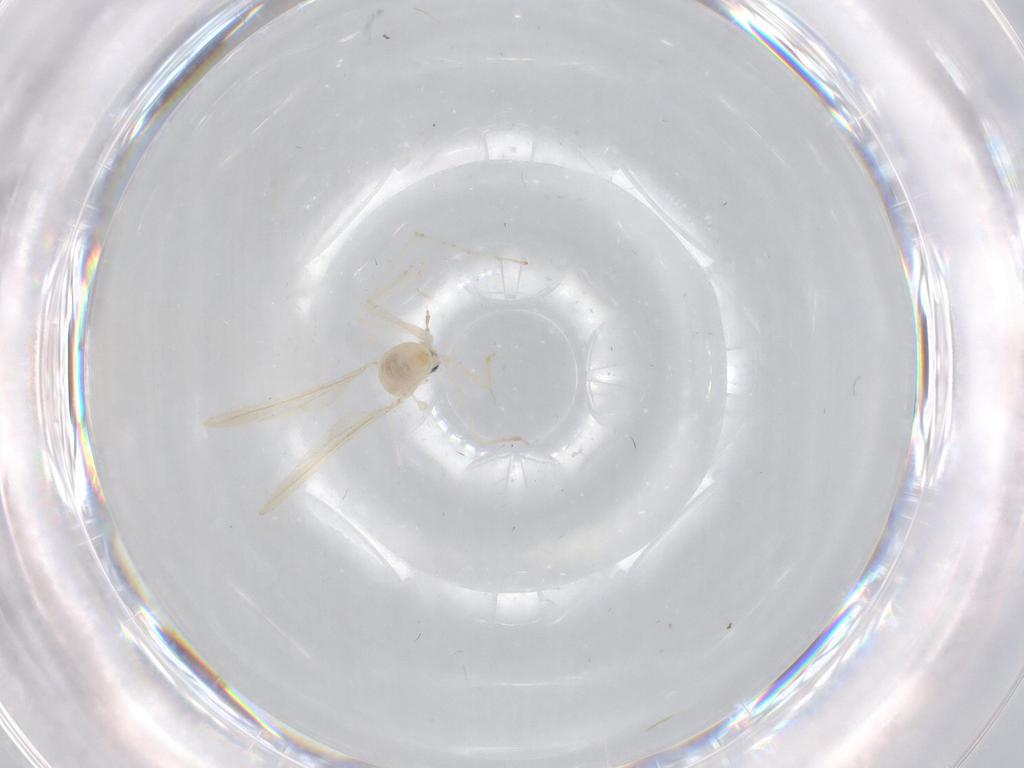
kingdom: Animalia
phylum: Arthropoda
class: Insecta
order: Diptera
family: Cecidomyiidae
